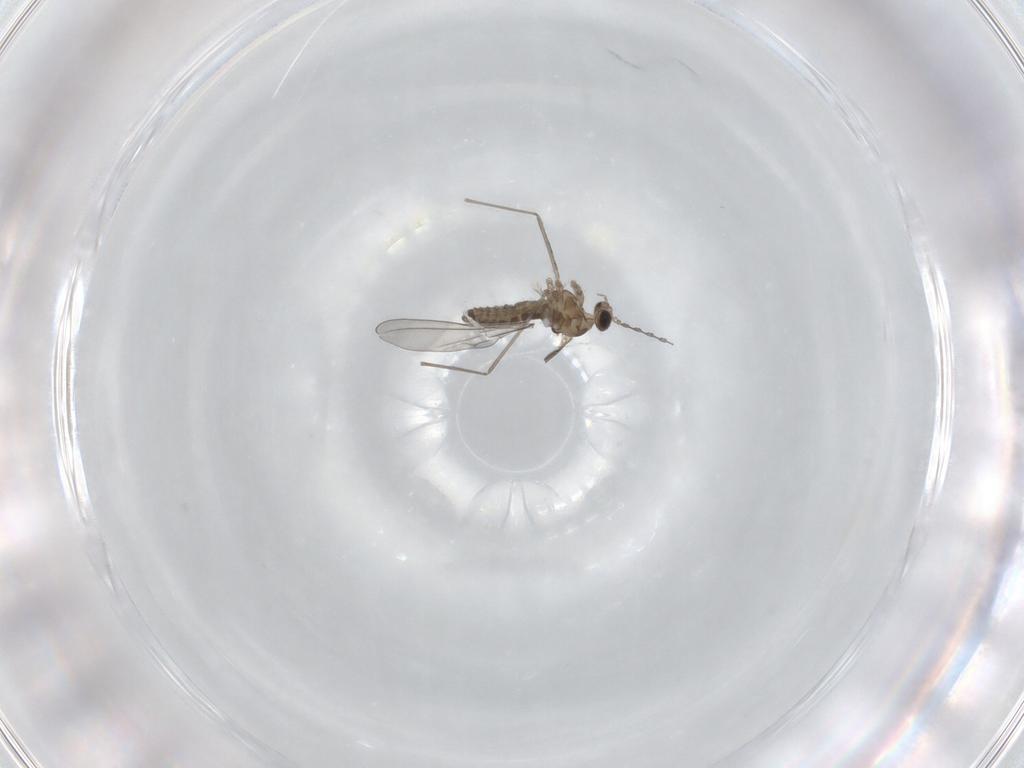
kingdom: Animalia
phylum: Arthropoda
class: Insecta
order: Diptera
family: Cecidomyiidae
